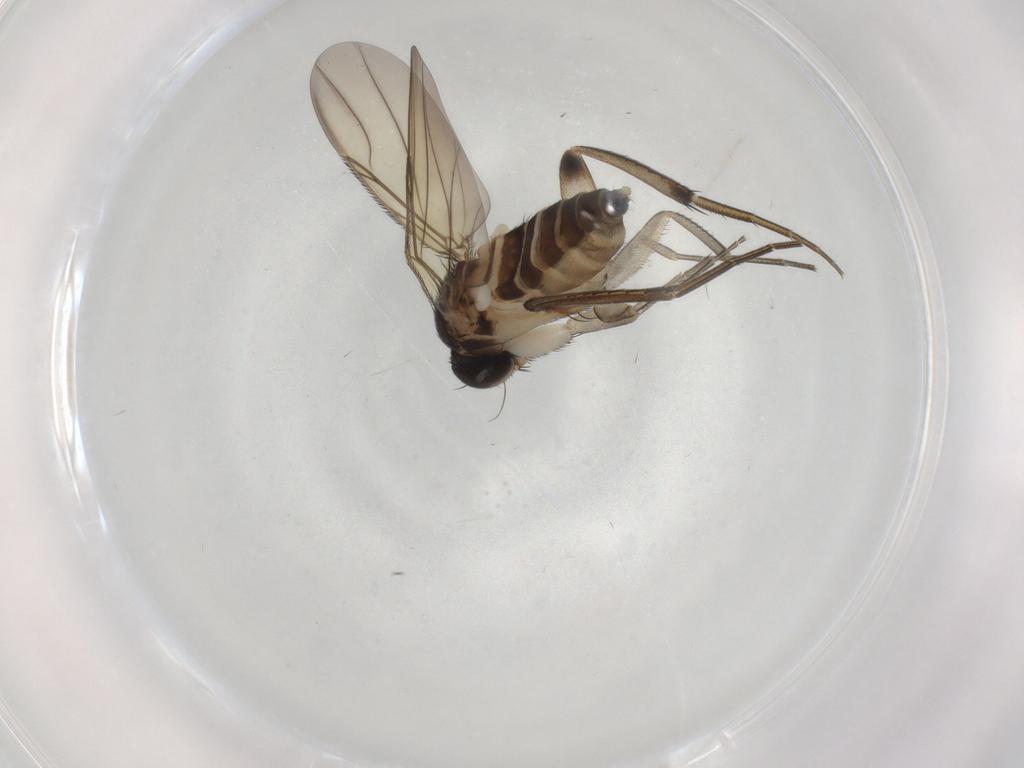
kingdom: Animalia
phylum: Arthropoda
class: Insecta
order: Diptera
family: Phoridae
